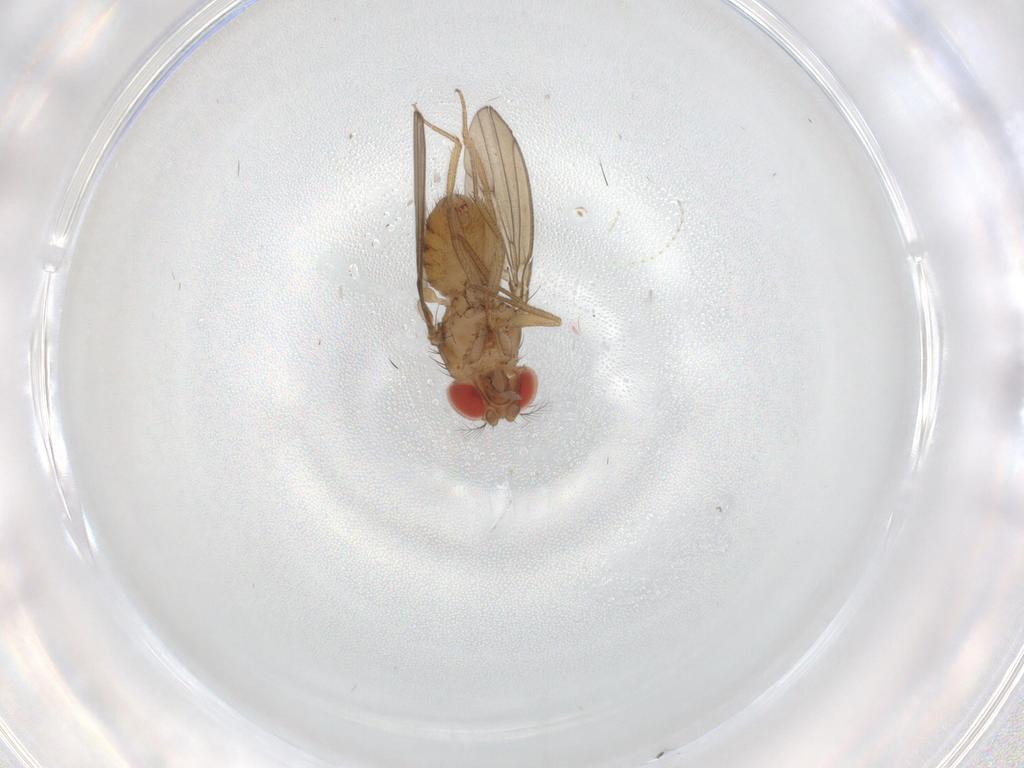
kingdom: Animalia
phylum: Arthropoda
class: Insecta
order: Diptera
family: Drosophilidae
